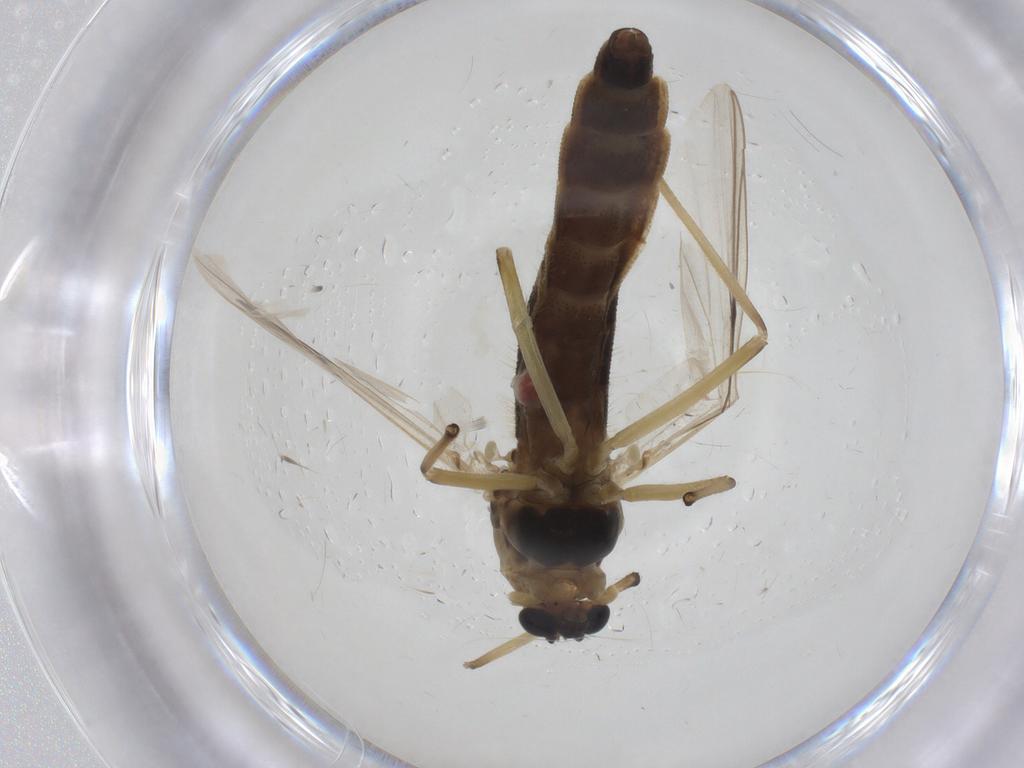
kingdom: Animalia
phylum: Arthropoda
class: Insecta
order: Diptera
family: Chironomidae
